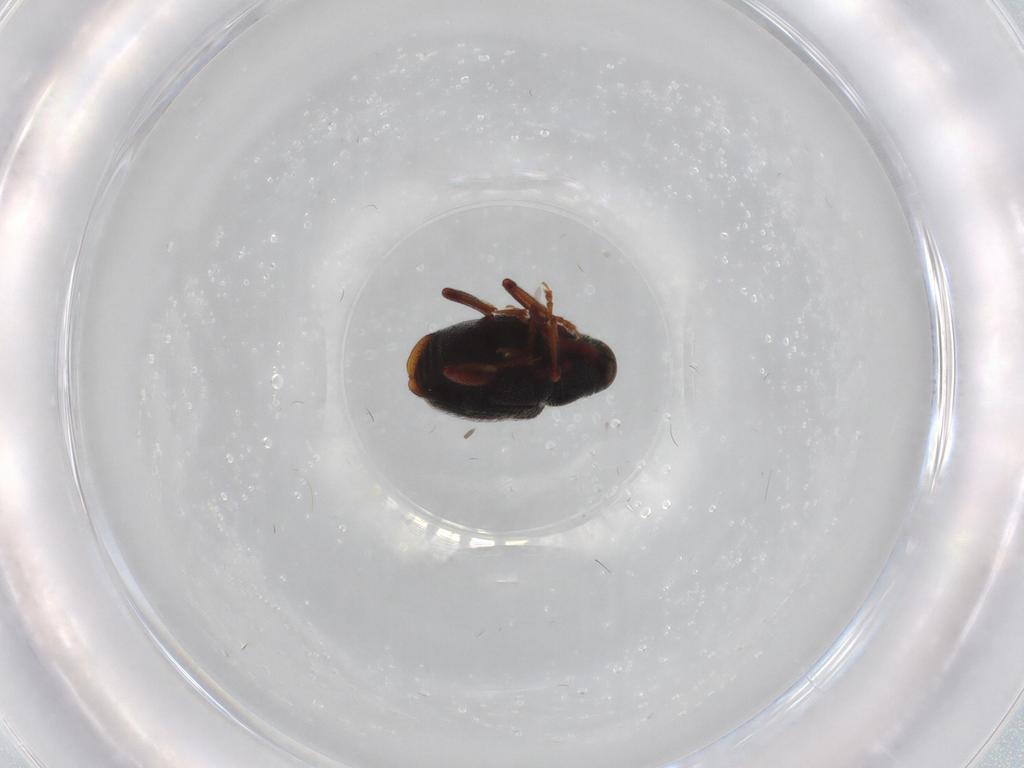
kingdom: Animalia
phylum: Arthropoda
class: Insecta
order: Coleoptera
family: Curculionidae
